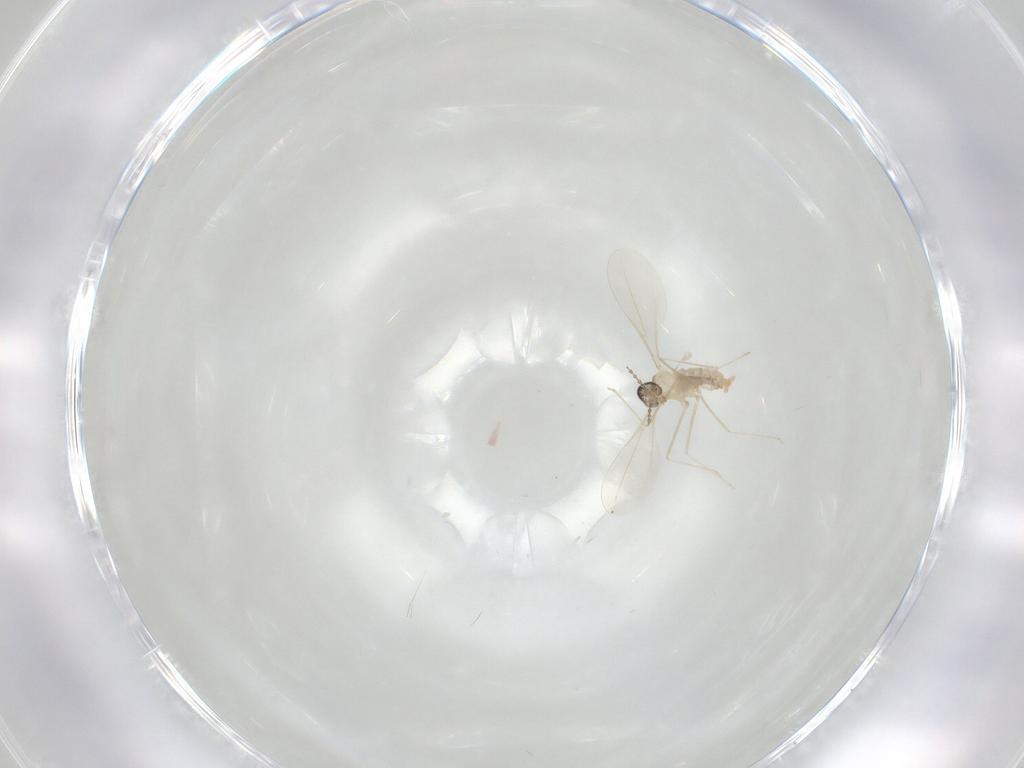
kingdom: Animalia
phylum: Arthropoda
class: Insecta
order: Diptera
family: Cecidomyiidae
